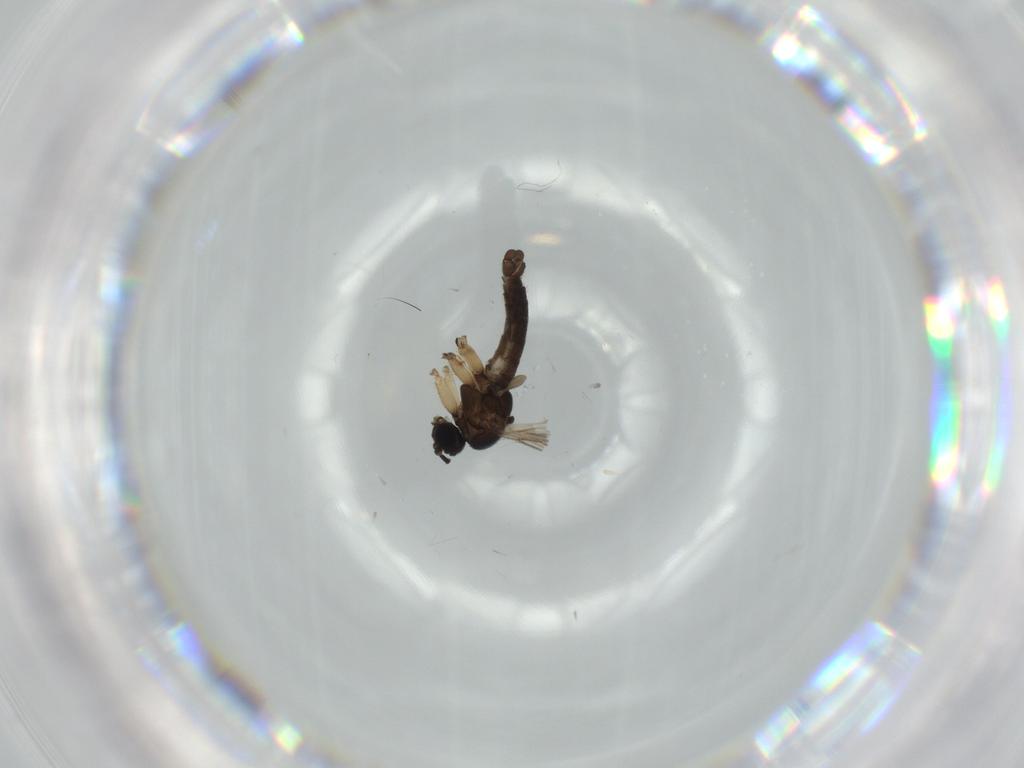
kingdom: Animalia
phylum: Arthropoda
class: Insecta
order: Diptera
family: Sciaridae
